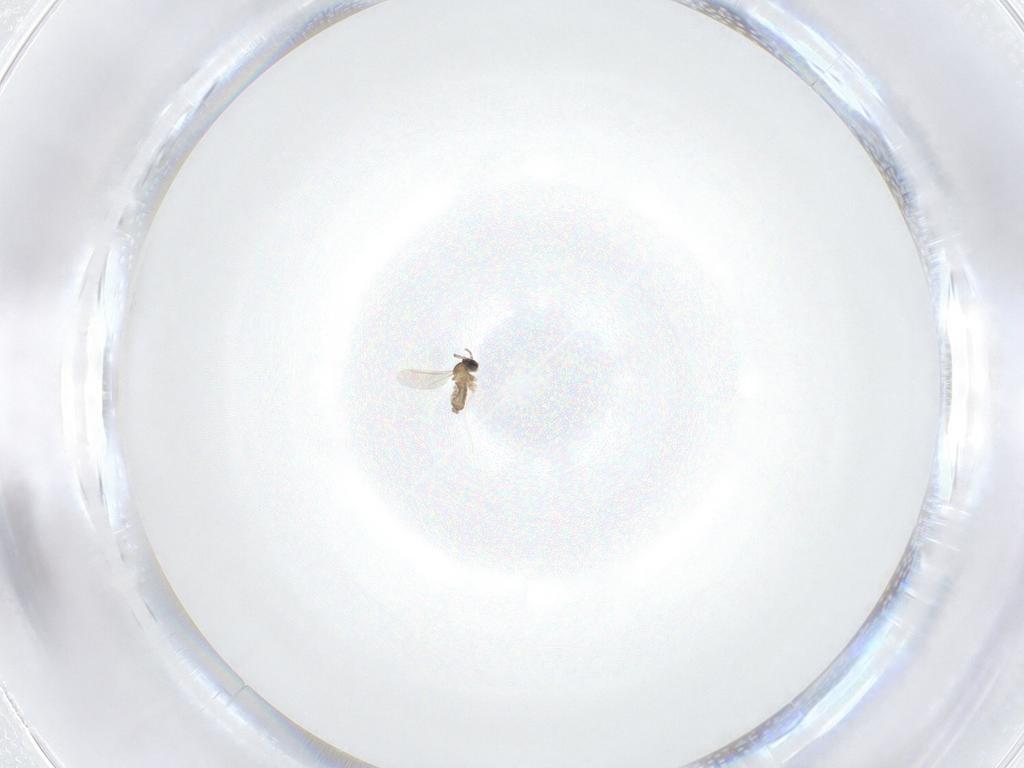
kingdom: Animalia
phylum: Arthropoda
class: Insecta
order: Diptera
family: Cecidomyiidae
